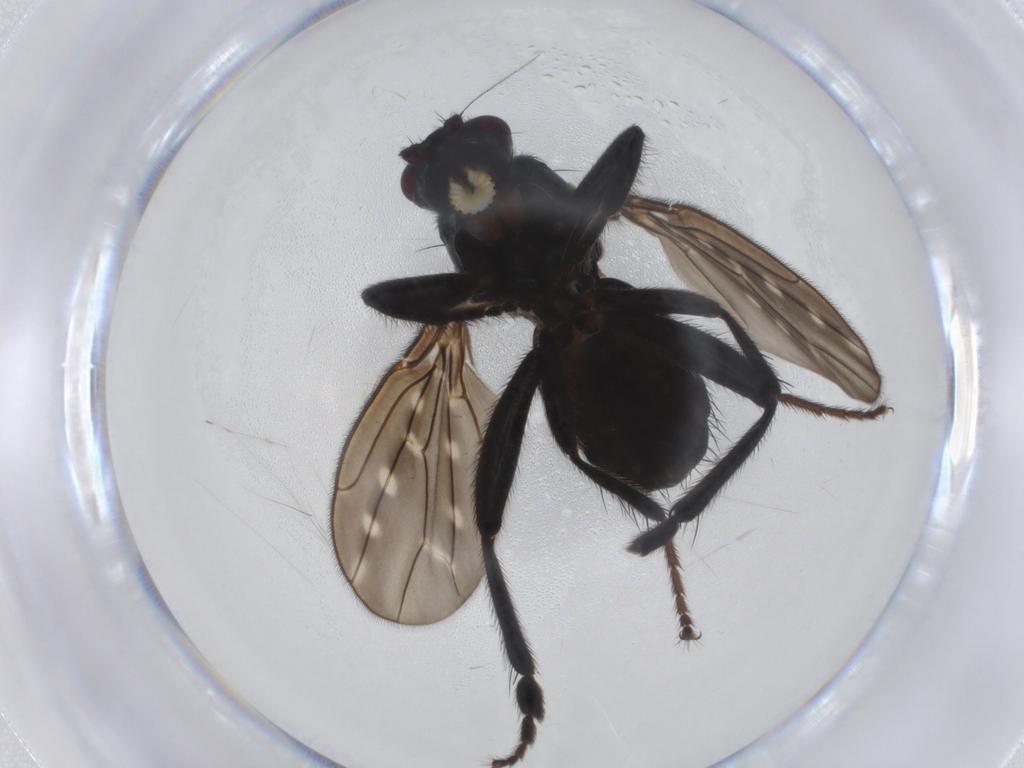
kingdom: Animalia
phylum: Arthropoda
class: Insecta
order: Diptera
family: Sphaeroceridae
